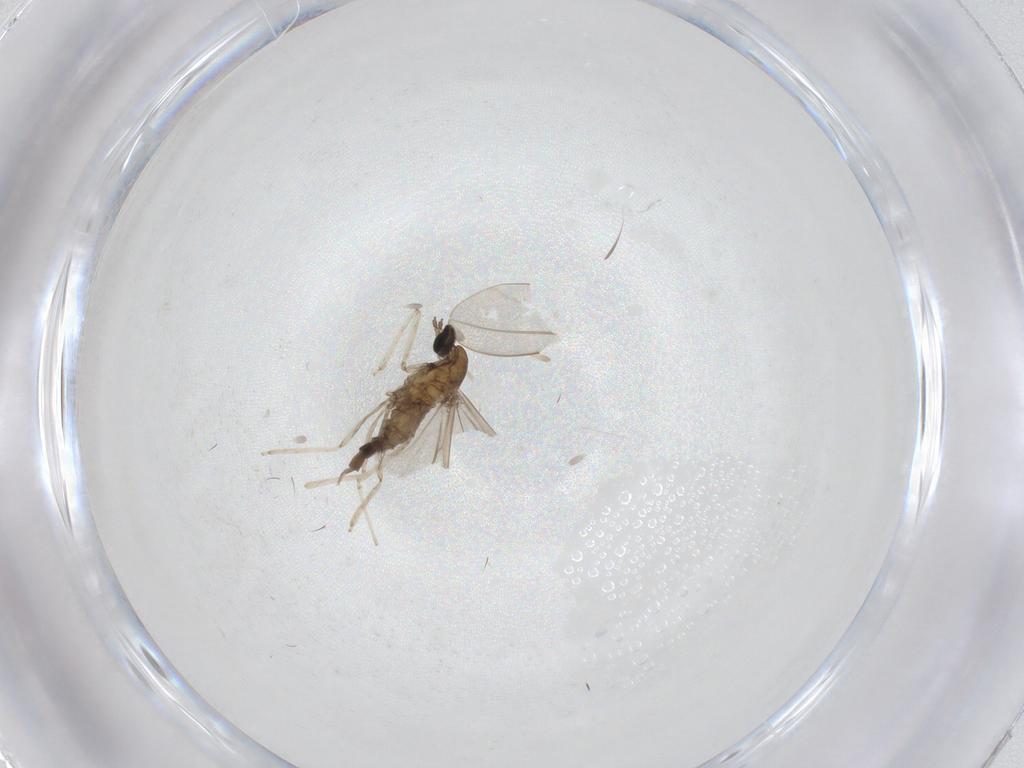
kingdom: Animalia
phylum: Arthropoda
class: Insecta
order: Diptera
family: Cecidomyiidae
